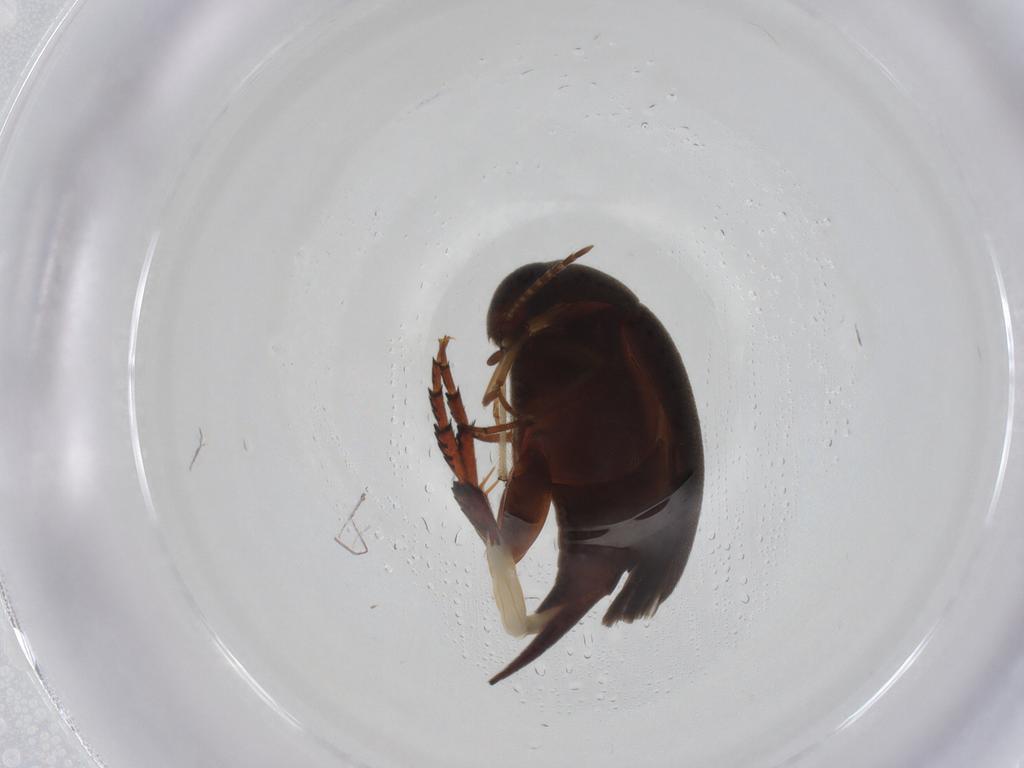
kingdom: Animalia
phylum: Arthropoda
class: Insecta
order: Coleoptera
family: Mordellidae
